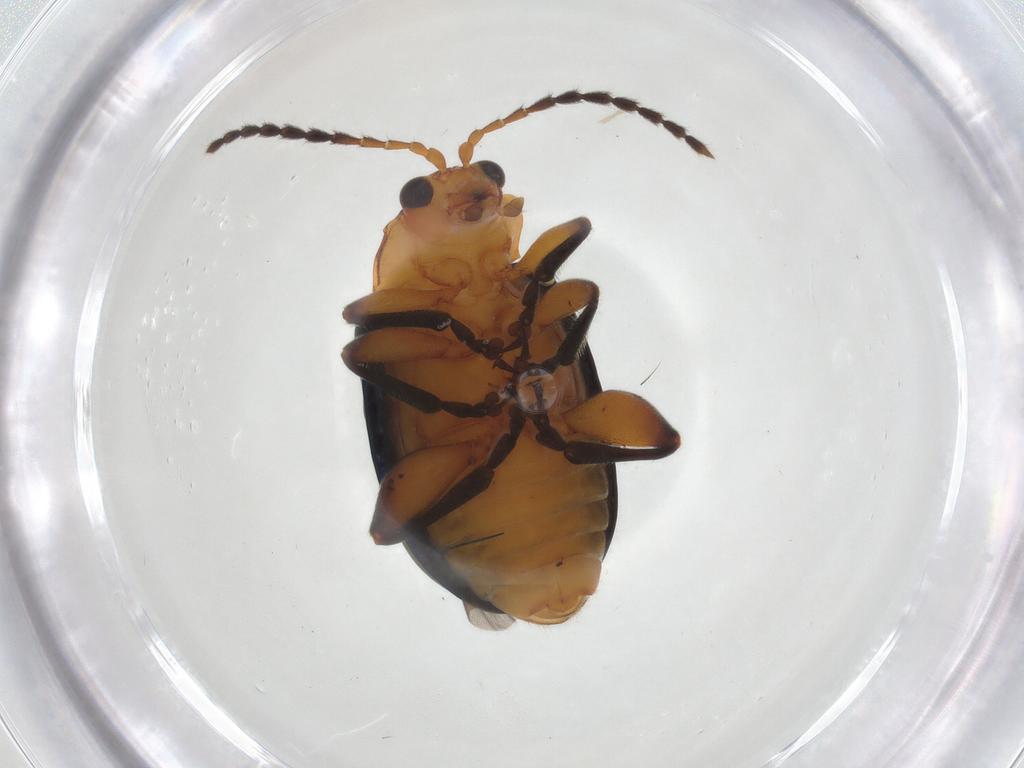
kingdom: Animalia
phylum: Arthropoda
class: Insecta
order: Coleoptera
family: Chrysomelidae
